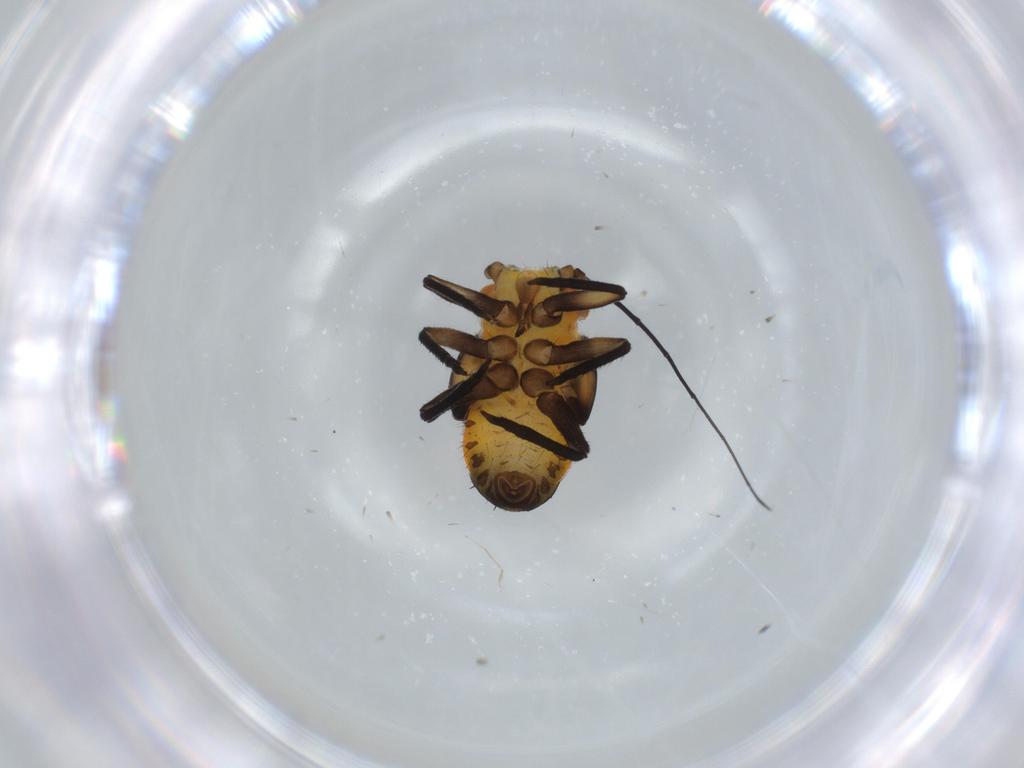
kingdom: Animalia
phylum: Arthropoda
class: Insecta
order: Hemiptera
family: Psyllidae
